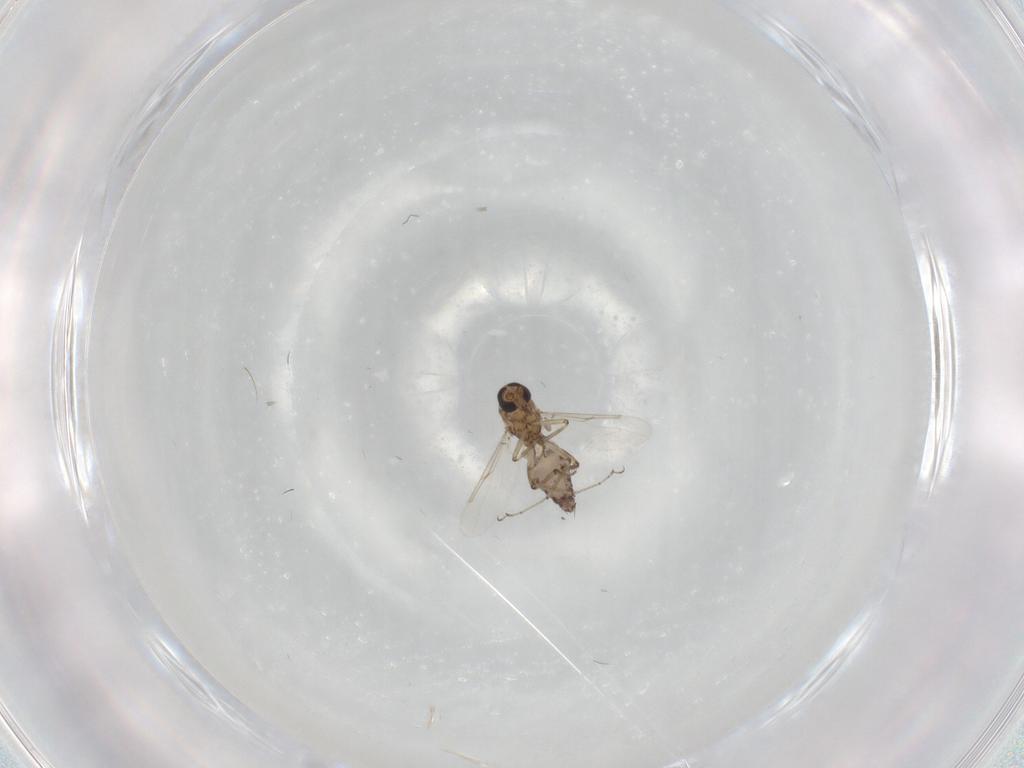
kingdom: Animalia
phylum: Arthropoda
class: Insecta
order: Diptera
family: Ceratopogonidae
